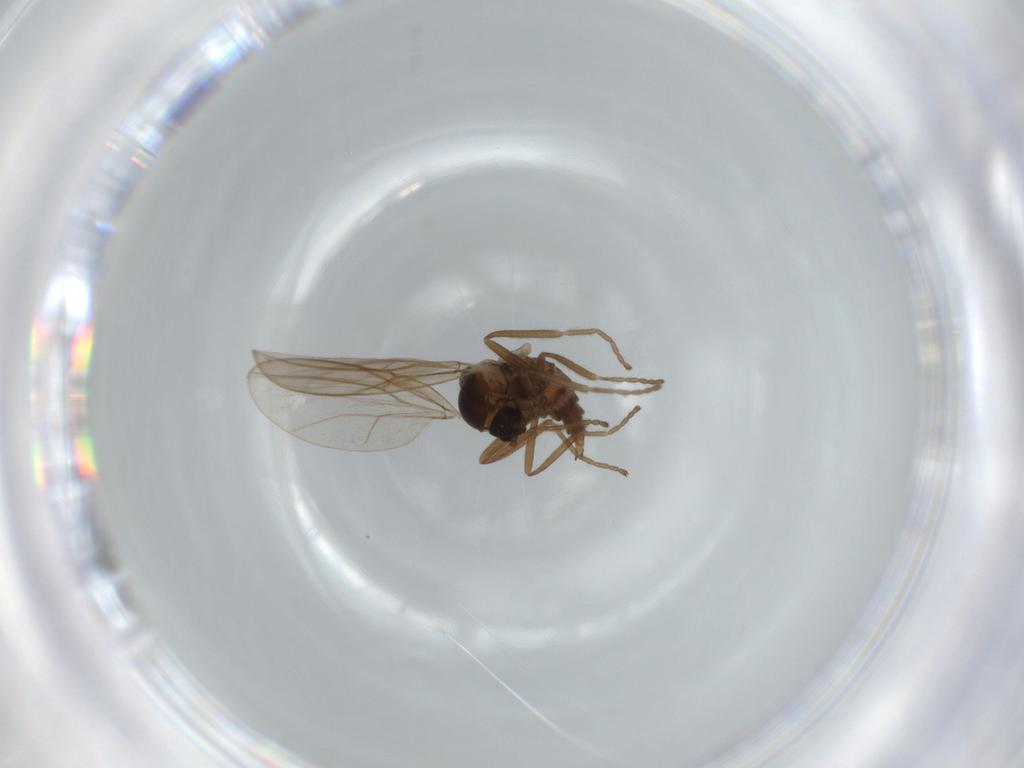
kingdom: Animalia
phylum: Arthropoda
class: Insecta
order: Diptera
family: Cecidomyiidae
